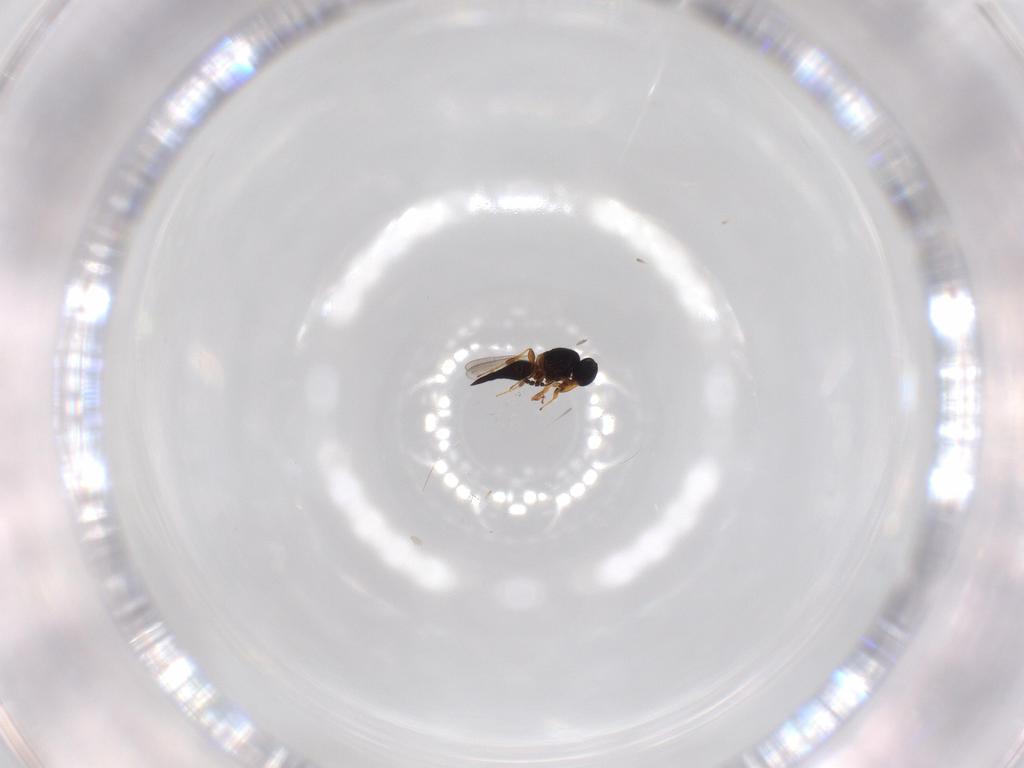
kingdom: Animalia
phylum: Arthropoda
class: Insecta
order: Hymenoptera
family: Platygastridae
